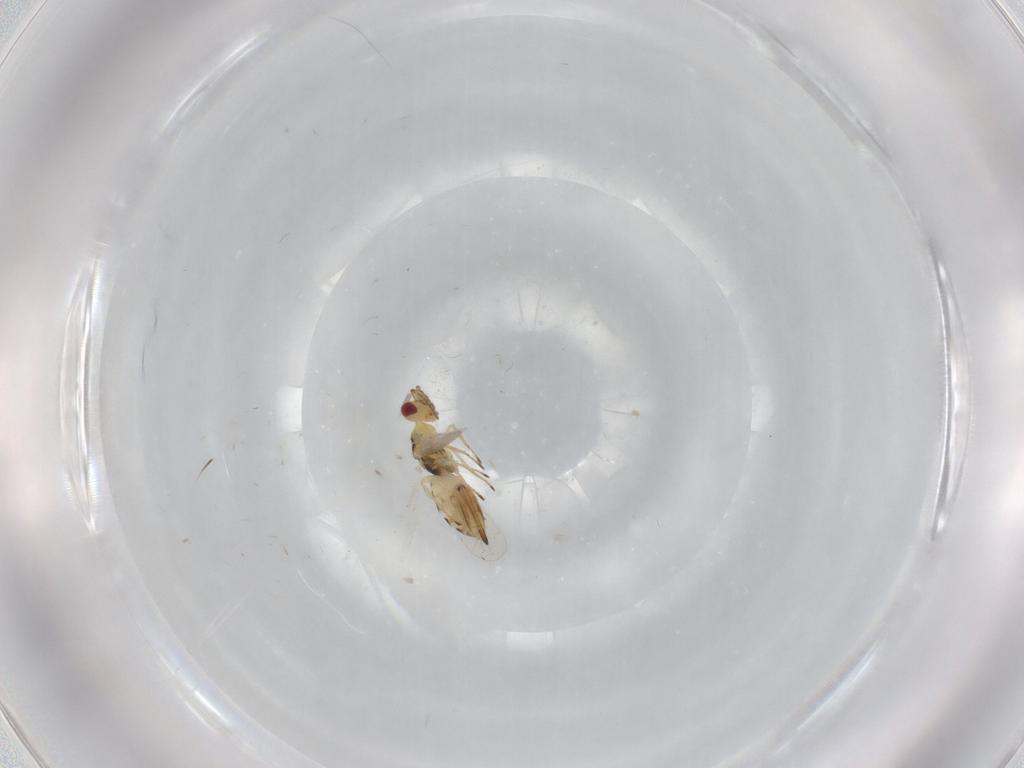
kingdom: Animalia
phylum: Arthropoda
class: Insecta
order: Hymenoptera
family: Eulophidae
